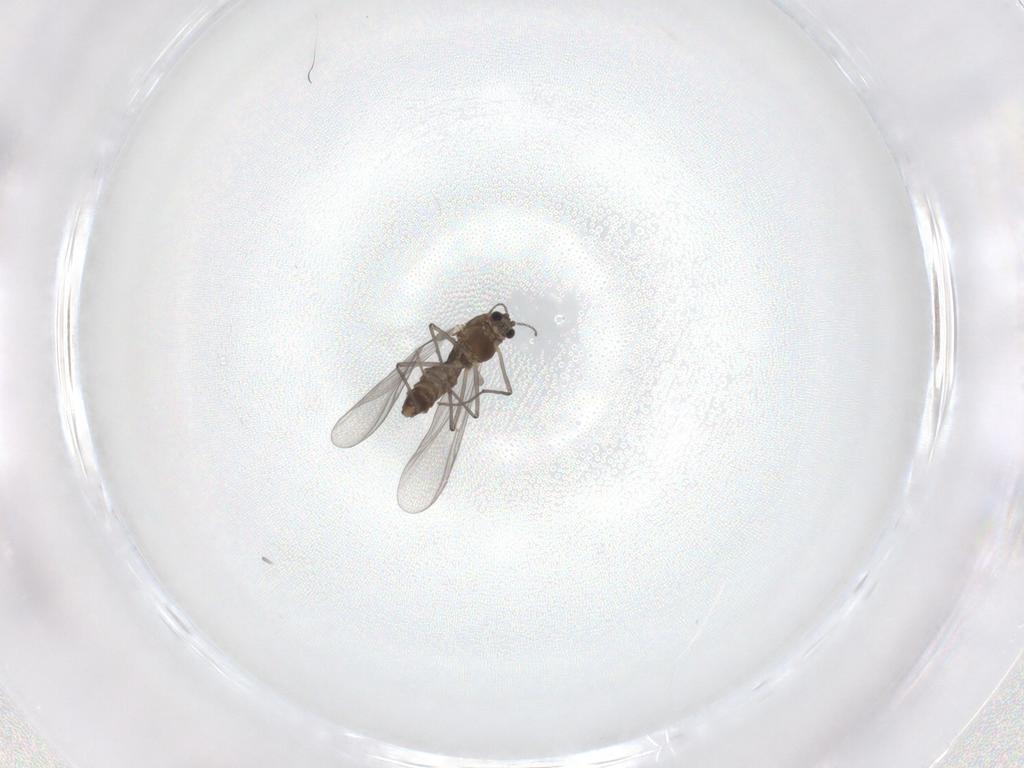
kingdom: Animalia
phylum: Arthropoda
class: Insecta
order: Diptera
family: Chironomidae
